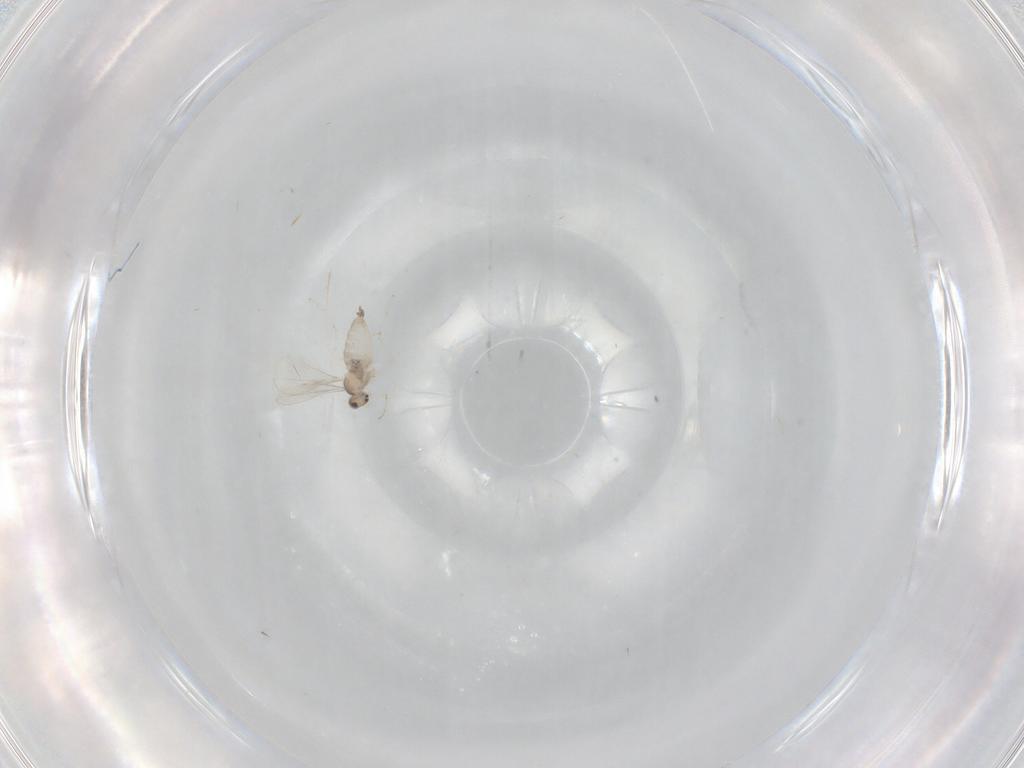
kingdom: Animalia
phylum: Arthropoda
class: Insecta
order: Diptera
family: Cecidomyiidae
